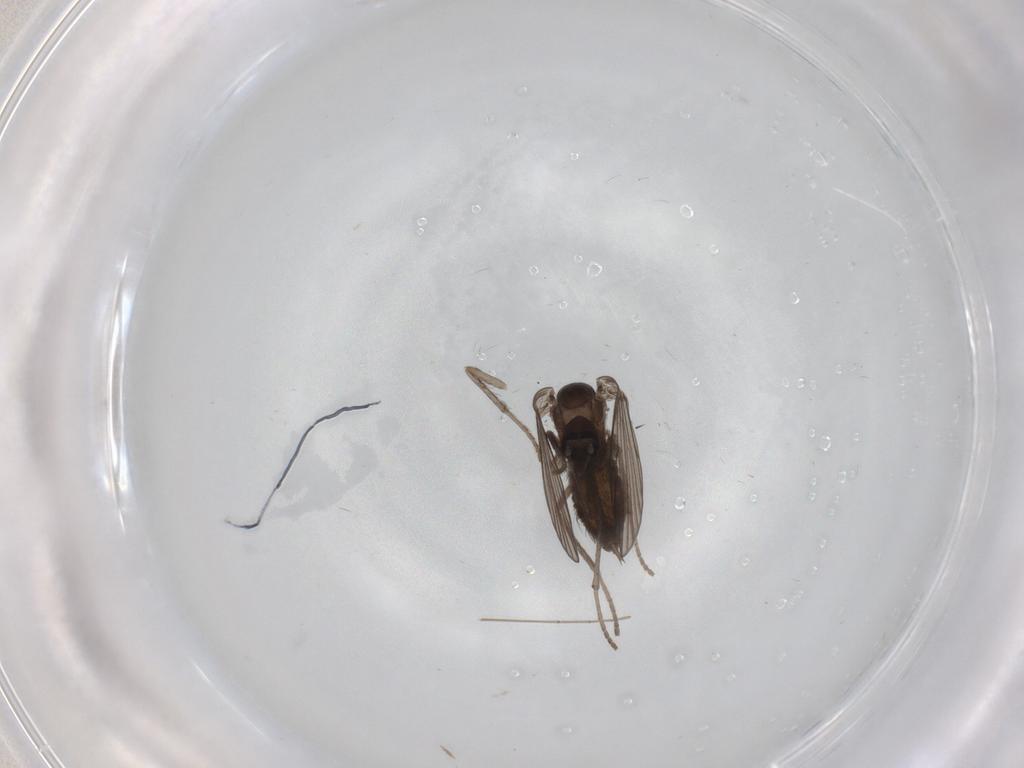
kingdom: Animalia
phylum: Arthropoda
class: Insecta
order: Diptera
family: Psychodidae
